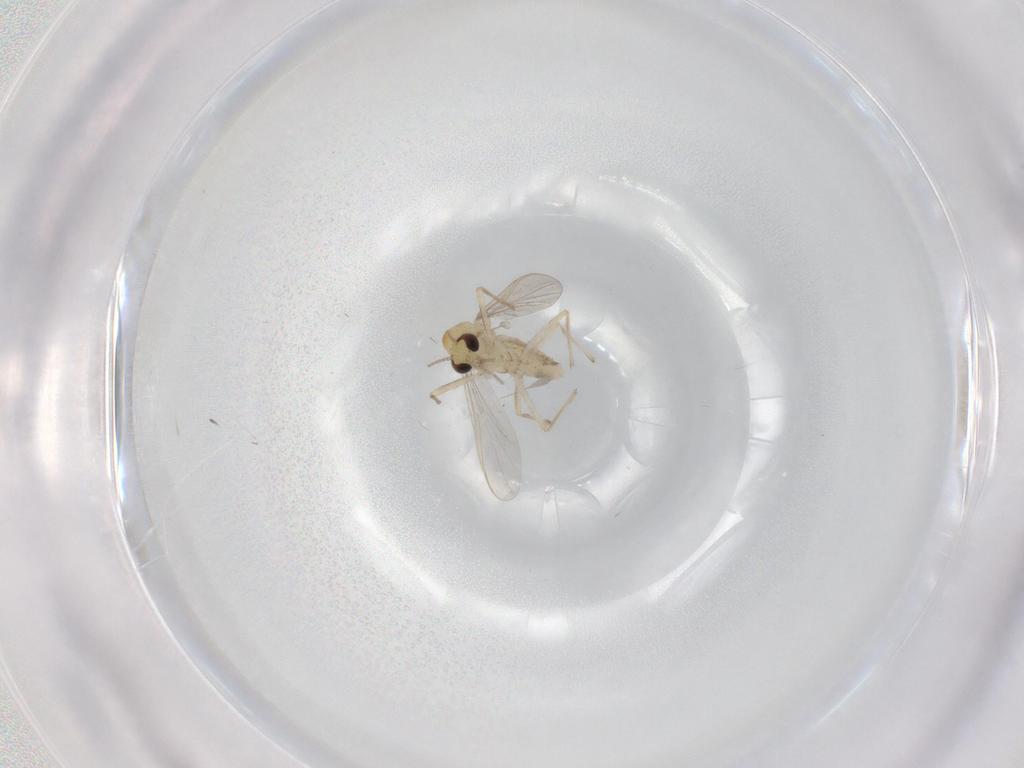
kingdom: Animalia
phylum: Arthropoda
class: Insecta
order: Diptera
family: Chironomidae
